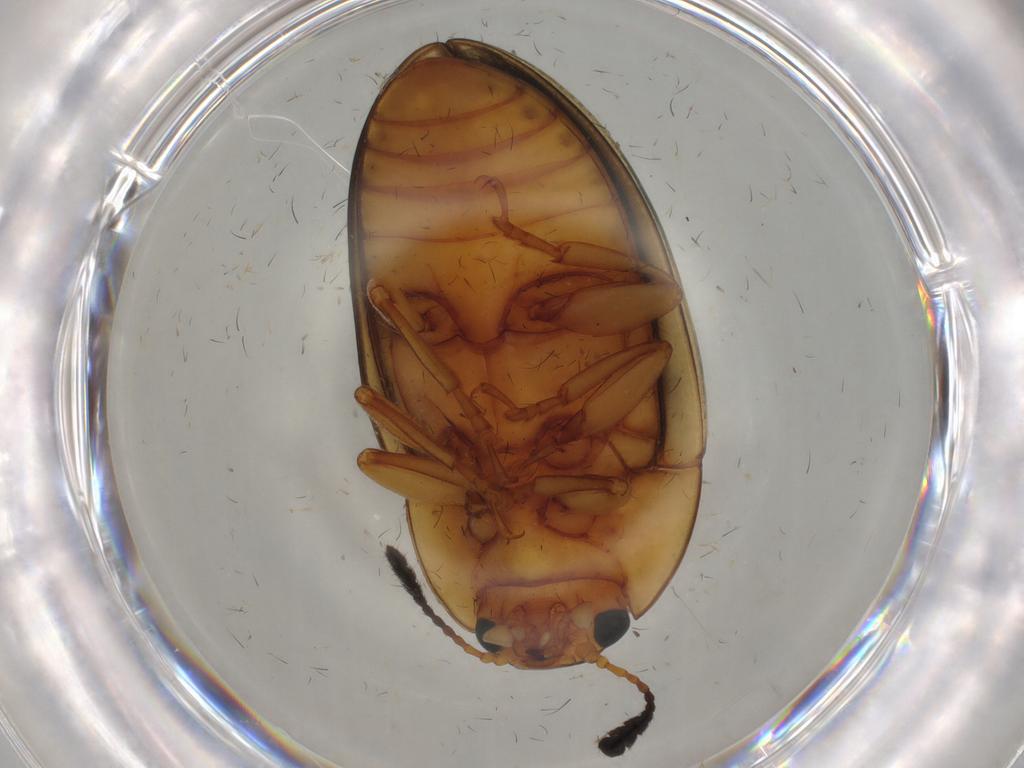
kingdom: Animalia
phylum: Arthropoda
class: Insecta
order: Coleoptera
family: Erotylidae
